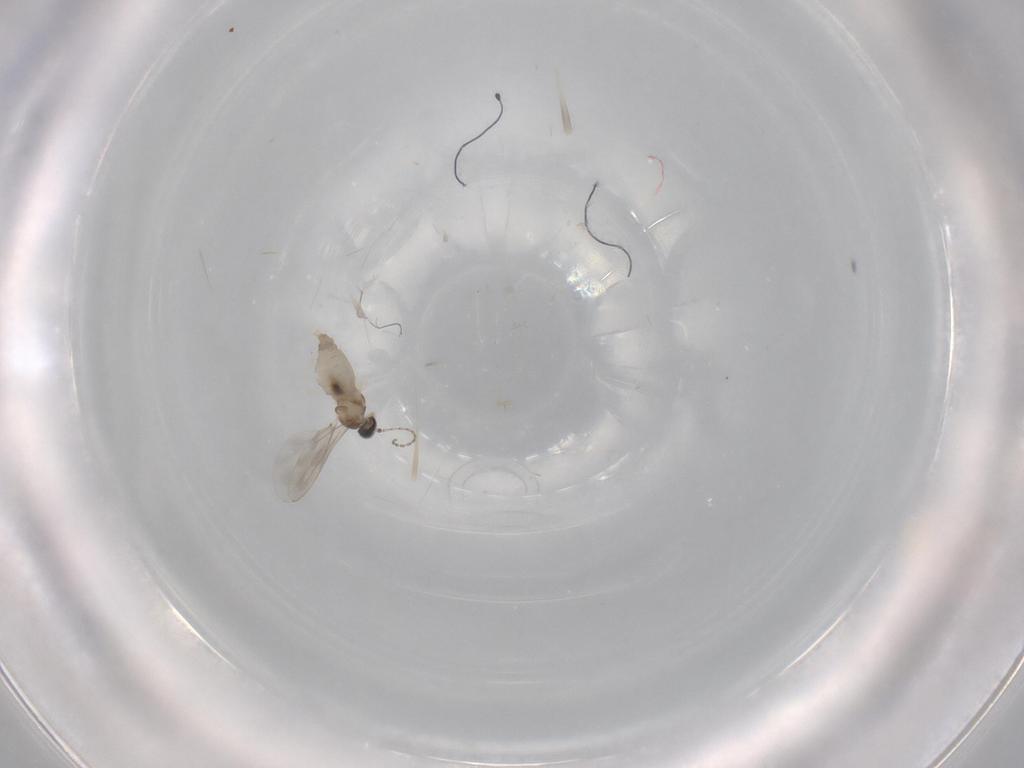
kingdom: Animalia
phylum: Arthropoda
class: Insecta
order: Diptera
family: Cecidomyiidae
